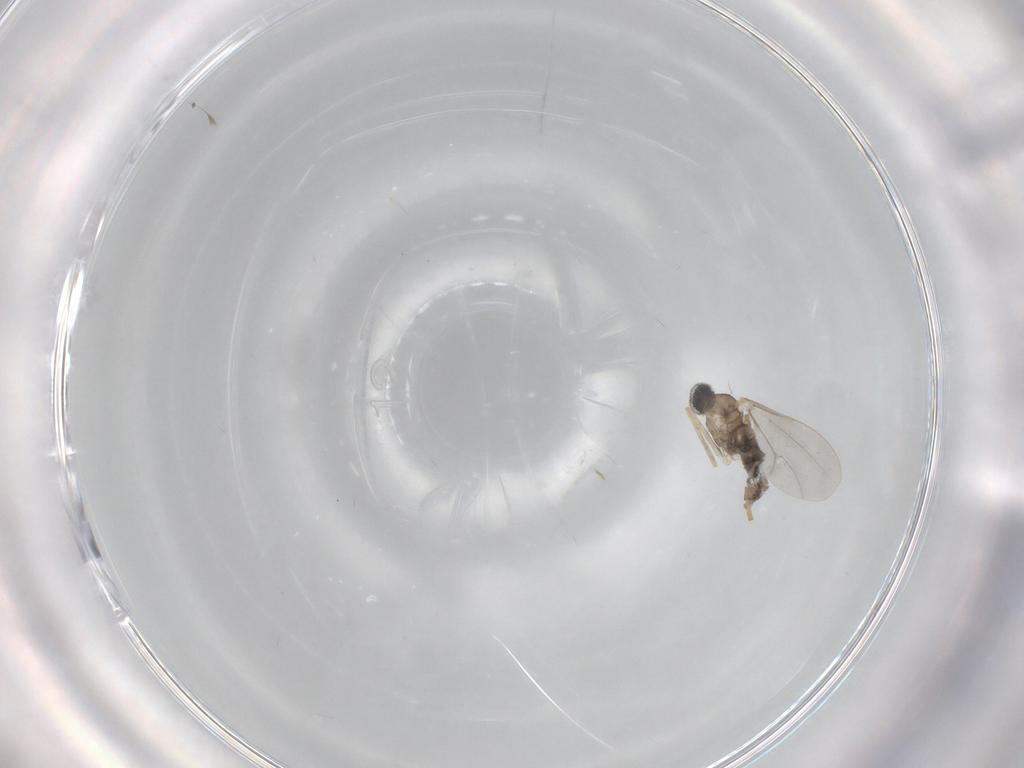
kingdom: Animalia
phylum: Arthropoda
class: Insecta
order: Diptera
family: Cecidomyiidae
